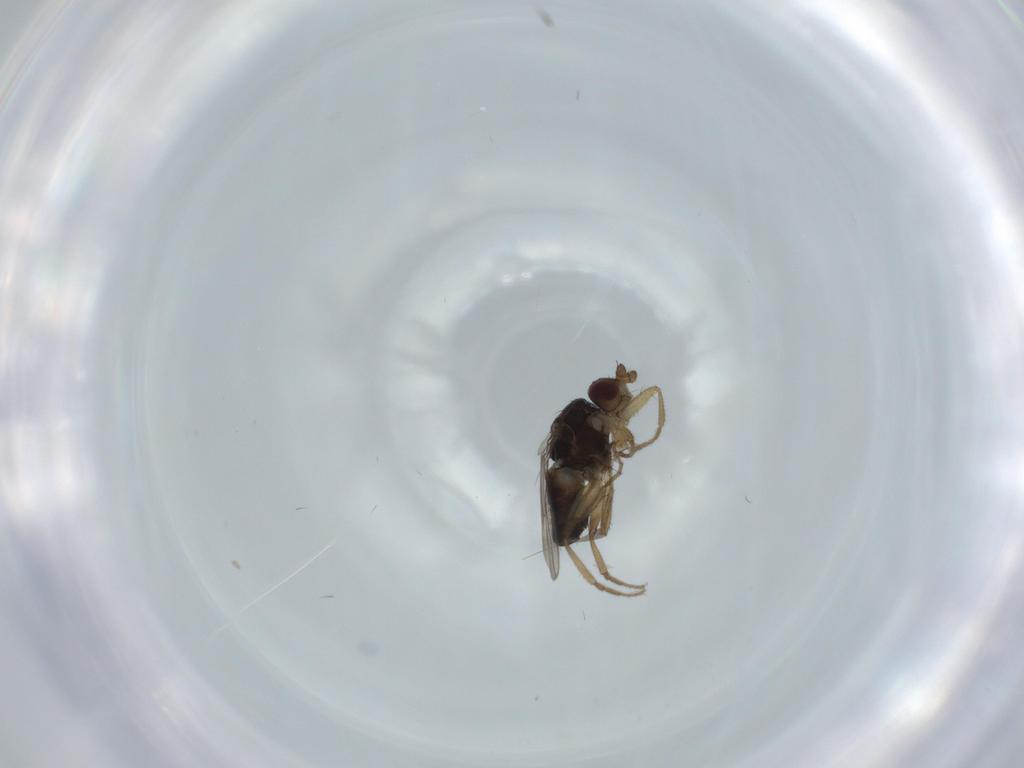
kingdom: Animalia
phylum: Arthropoda
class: Insecta
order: Diptera
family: Sphaeroceridae
